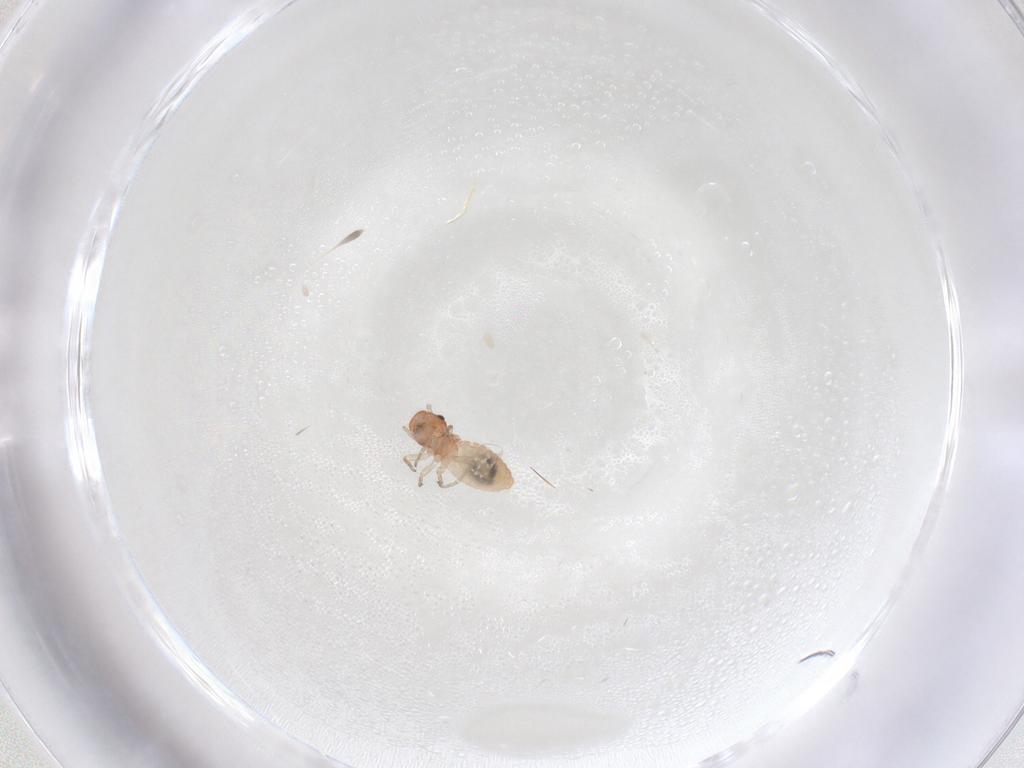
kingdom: Animalia
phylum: Arthropoda
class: Insecta
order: Psocodea
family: Caeciliusidae
